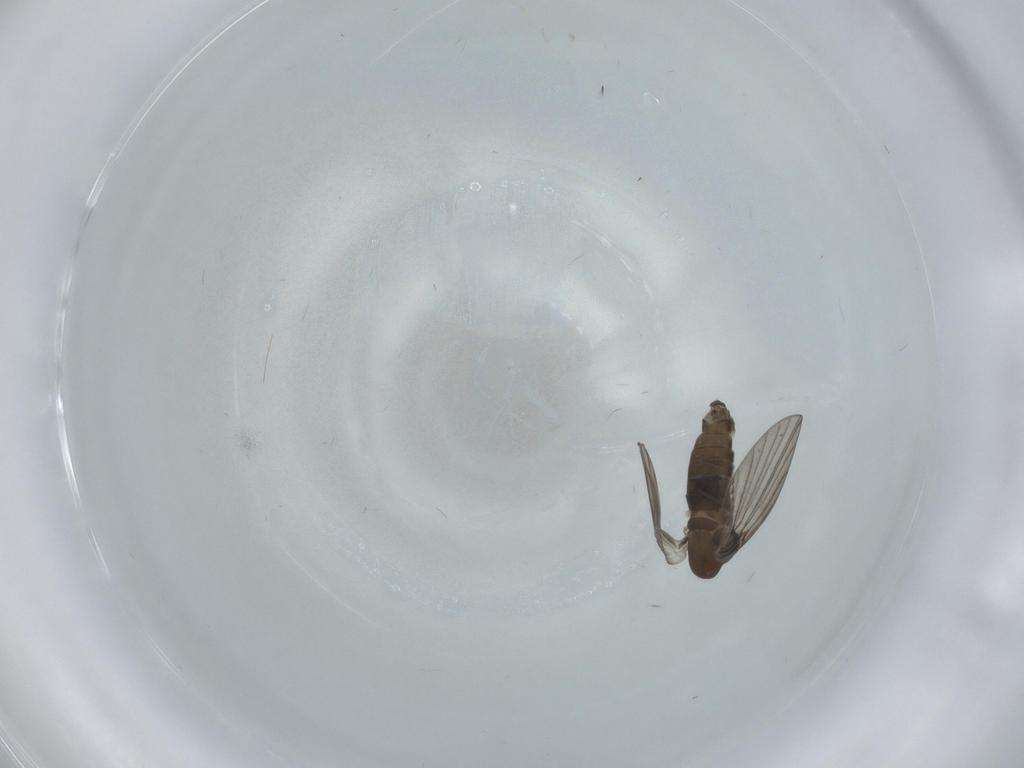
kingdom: Animalia
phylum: Arthropoda
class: Insecta
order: Diptera
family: Psychodidae
